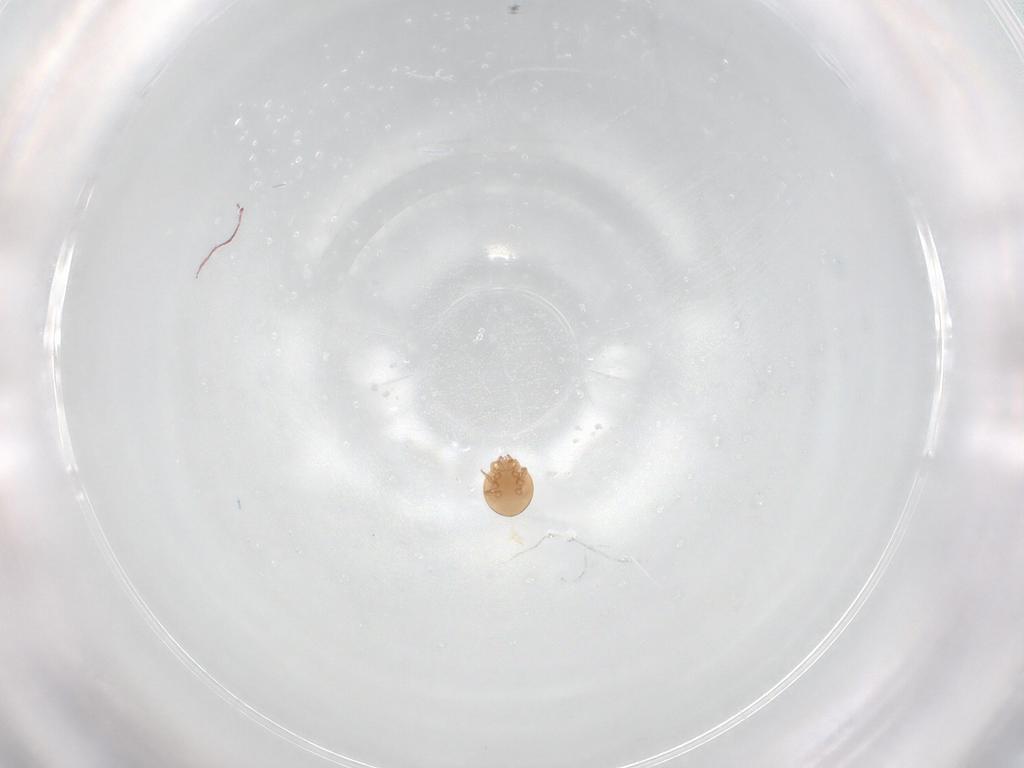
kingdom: Animalia
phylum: Arthropoda
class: Arachnida
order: Mesostigmata
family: Trematuridae
